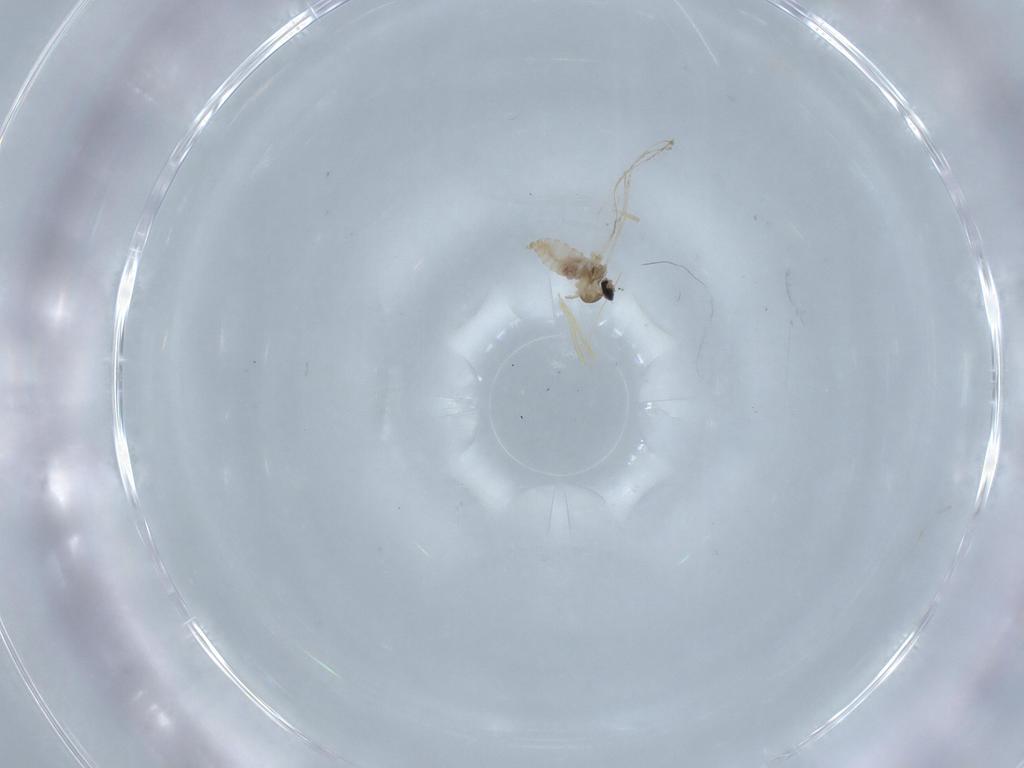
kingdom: Animalia
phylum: Arthropoda
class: Insecta
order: Diptera
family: Cecidomyiidae
